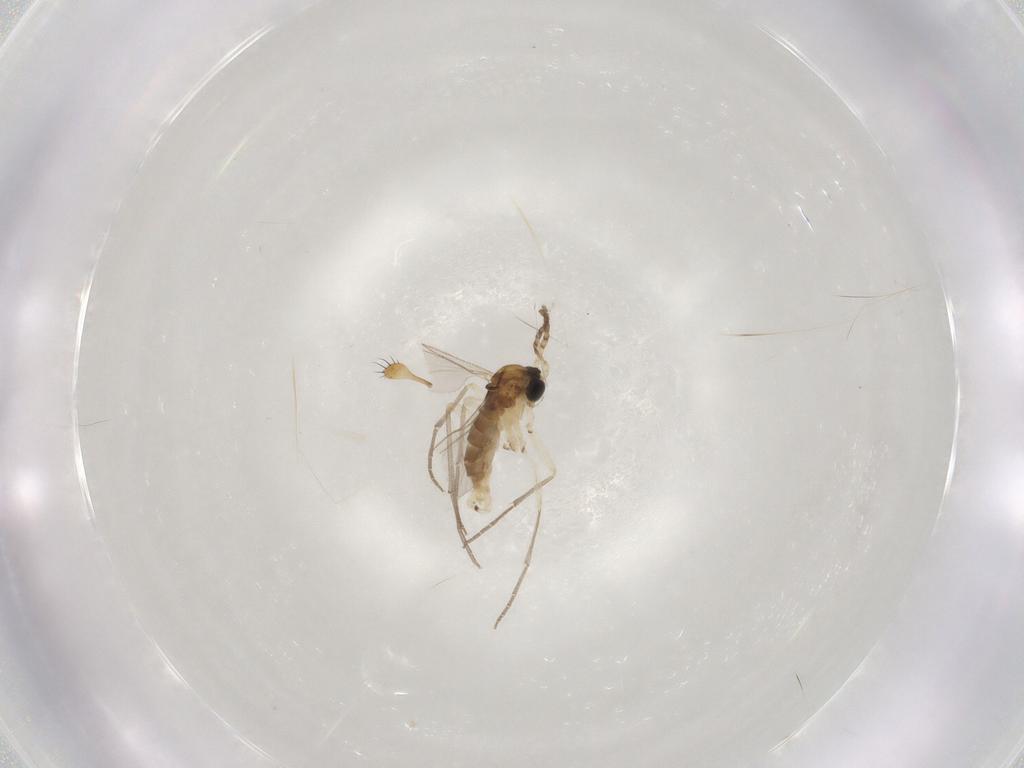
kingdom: Animalia
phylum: Arthropoda
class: Insecta
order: Diptera
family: Sciaridae
